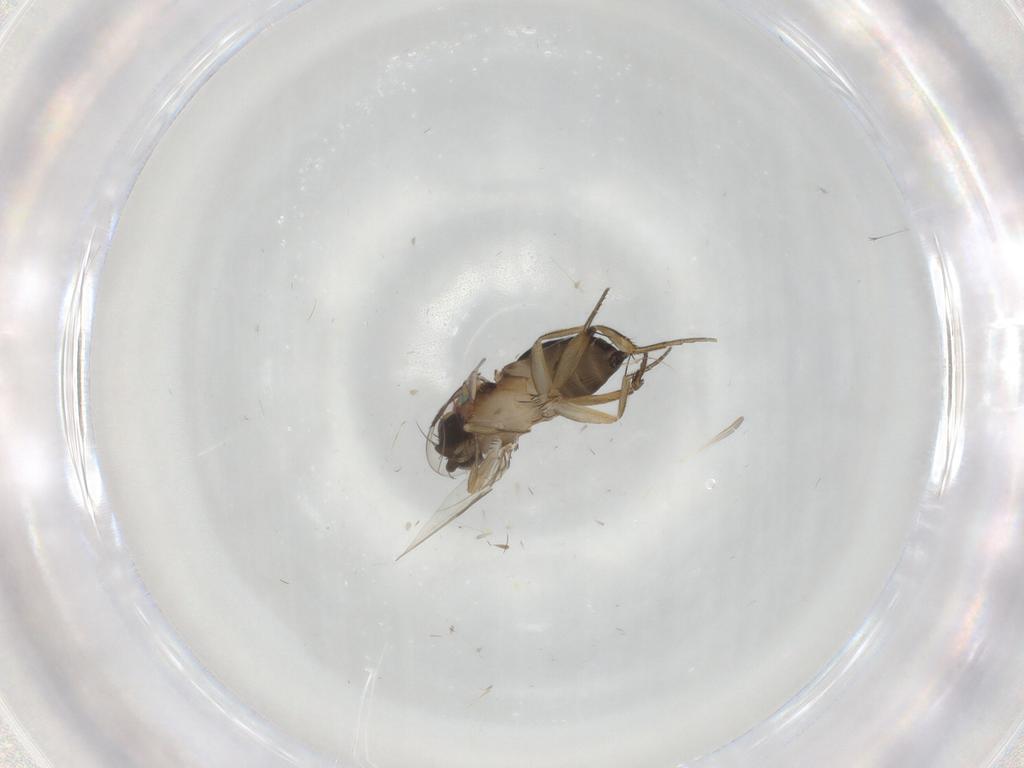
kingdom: Animalia
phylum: Arthropoda
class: Insecta
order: Diptera
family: Phoridae
